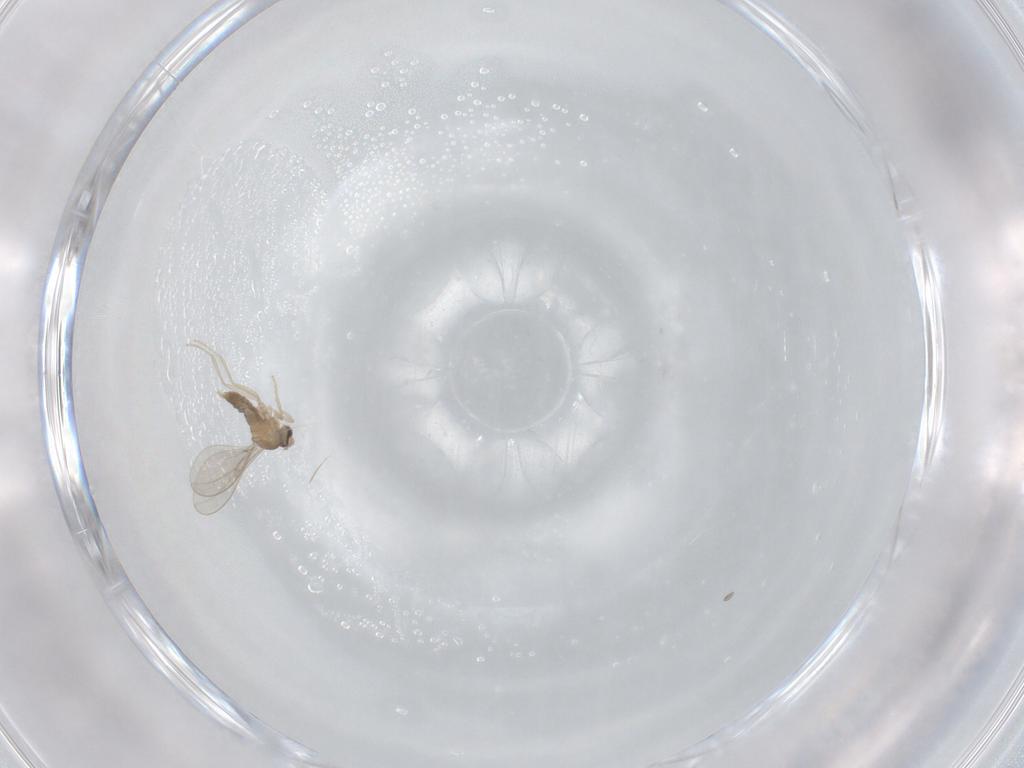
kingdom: Animalia
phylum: Arthropoda
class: Insecta
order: Diptera
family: Cecidomyiidae
